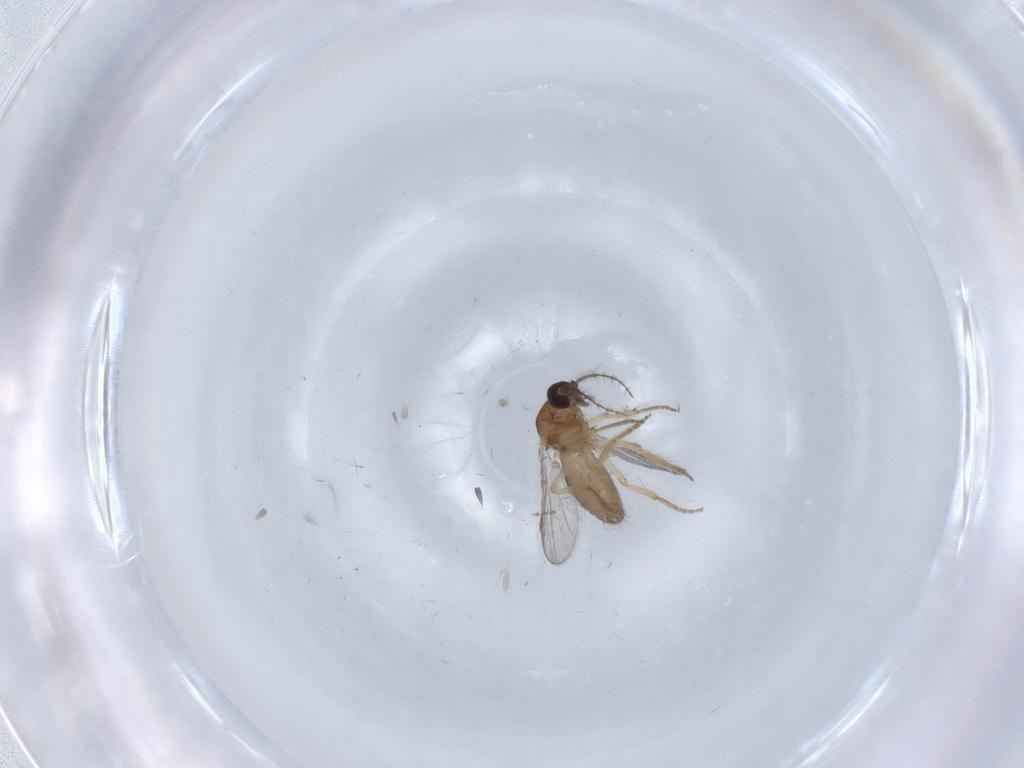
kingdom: Animalia
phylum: Arthropoda
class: Insecta
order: Diptera
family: Ceratopogonidae
